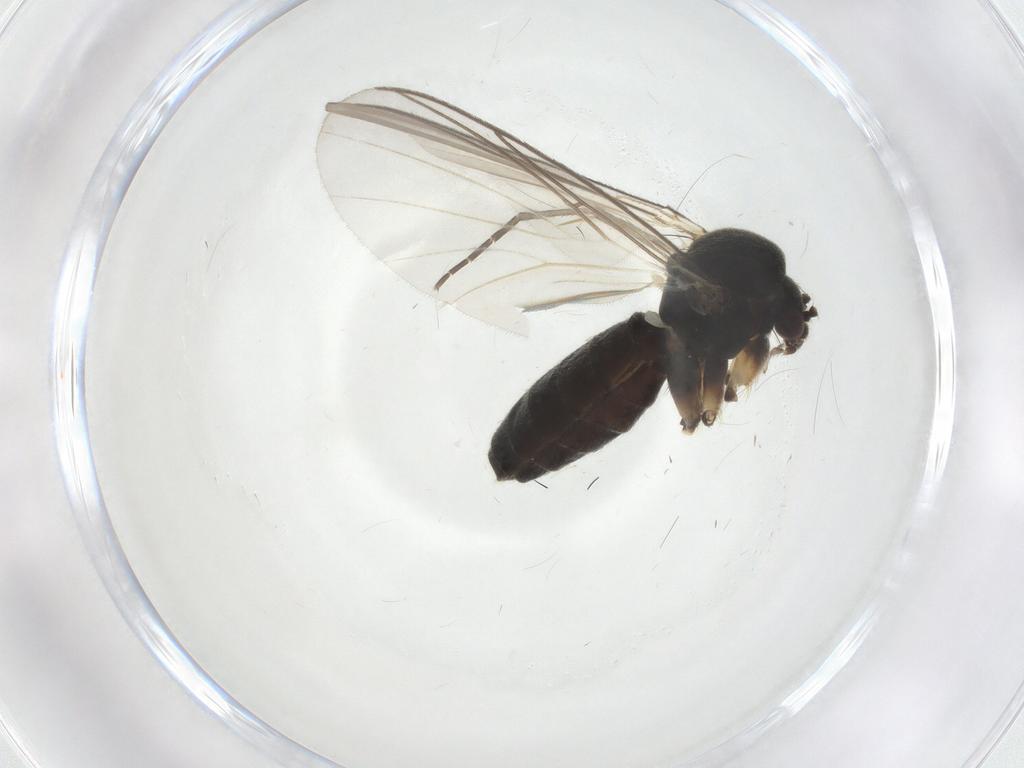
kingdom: Animalia
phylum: Arthropoda
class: Insecta
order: Diptera
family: Mycetophilidae
